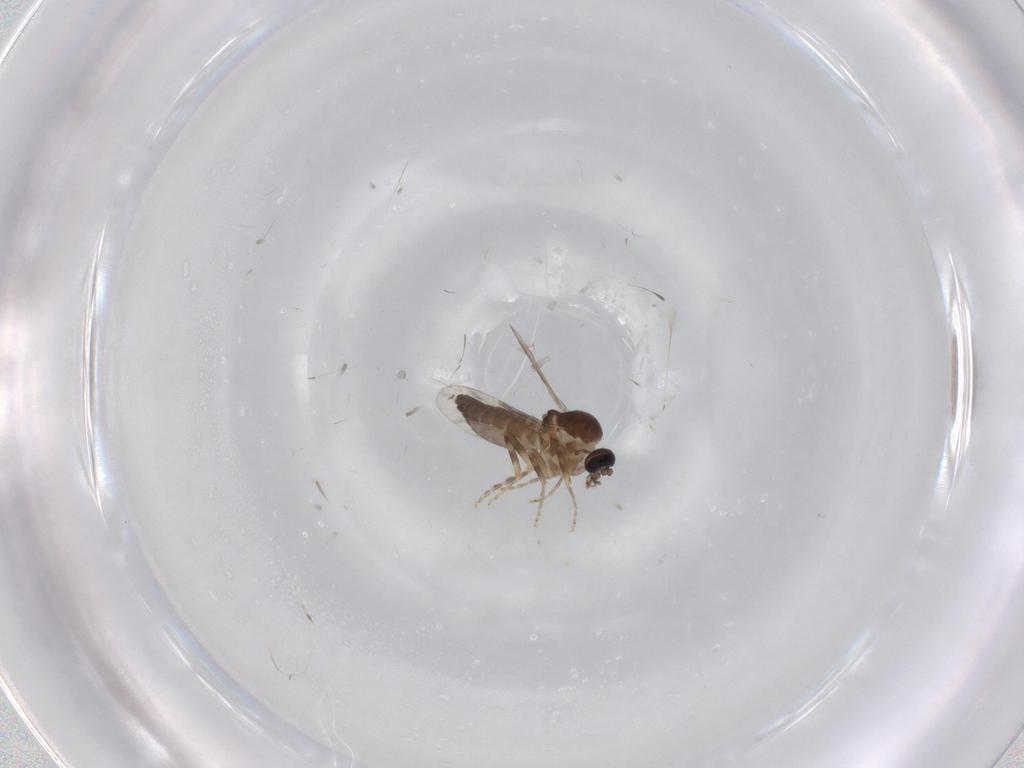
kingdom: Animalia
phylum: Arthropoda
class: Insecta
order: Diptera
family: Ceratopogonidae
